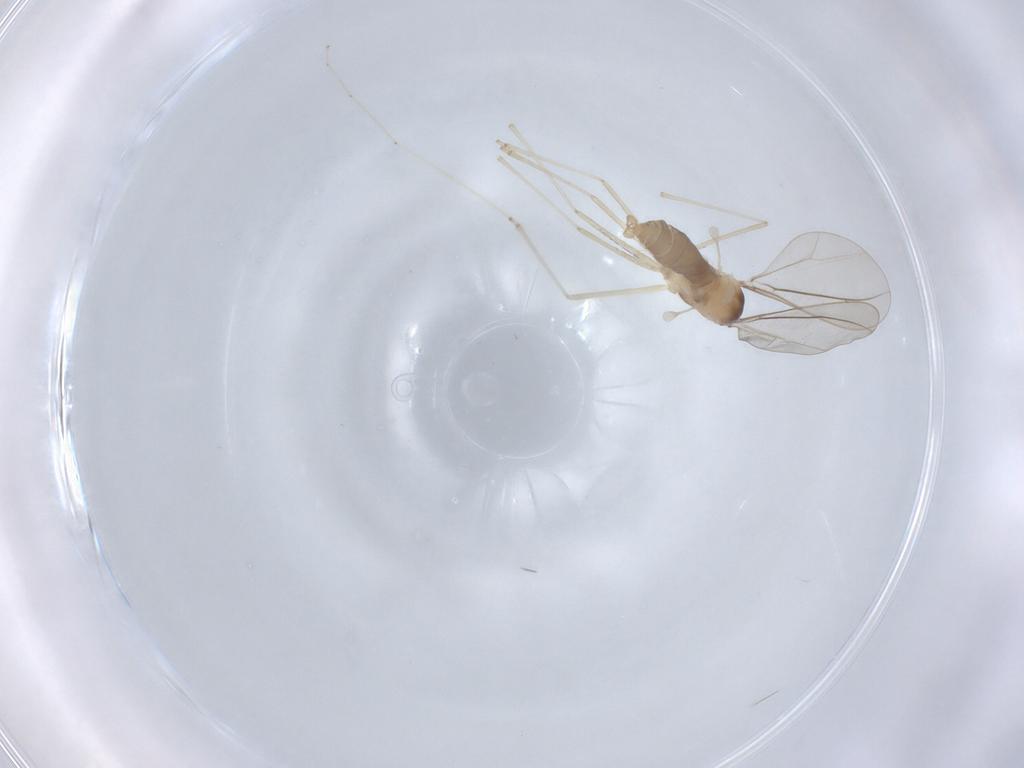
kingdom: Animalia
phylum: Arthropoda
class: Insecta
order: Diptera
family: Cecidomyiidae
